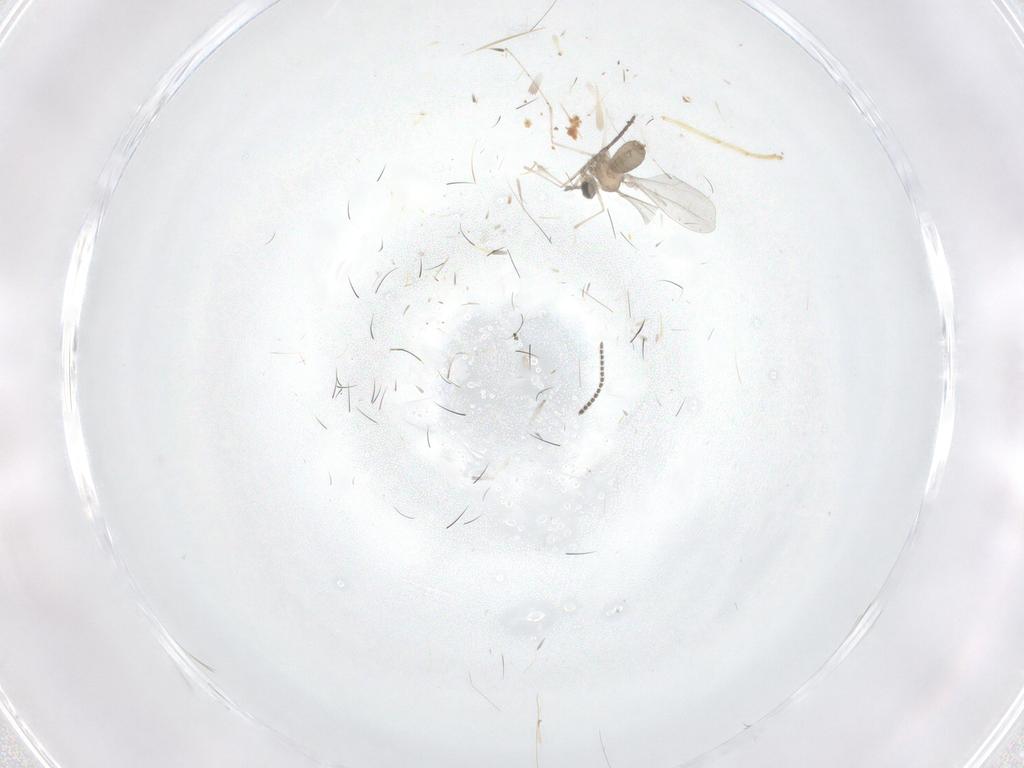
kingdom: Animalia
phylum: Arthropoda
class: Insecta
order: Diptera
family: Sciaridae
